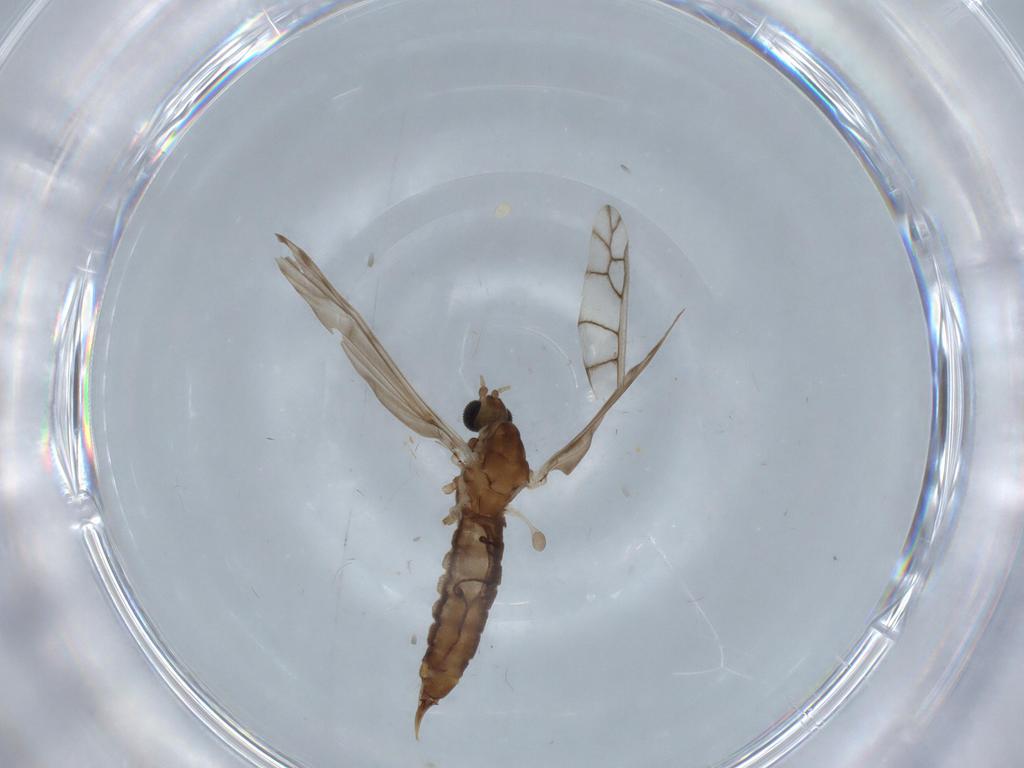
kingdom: Animalia
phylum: Arthropoda
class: Insecta
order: Diptera
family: Limoniidae
